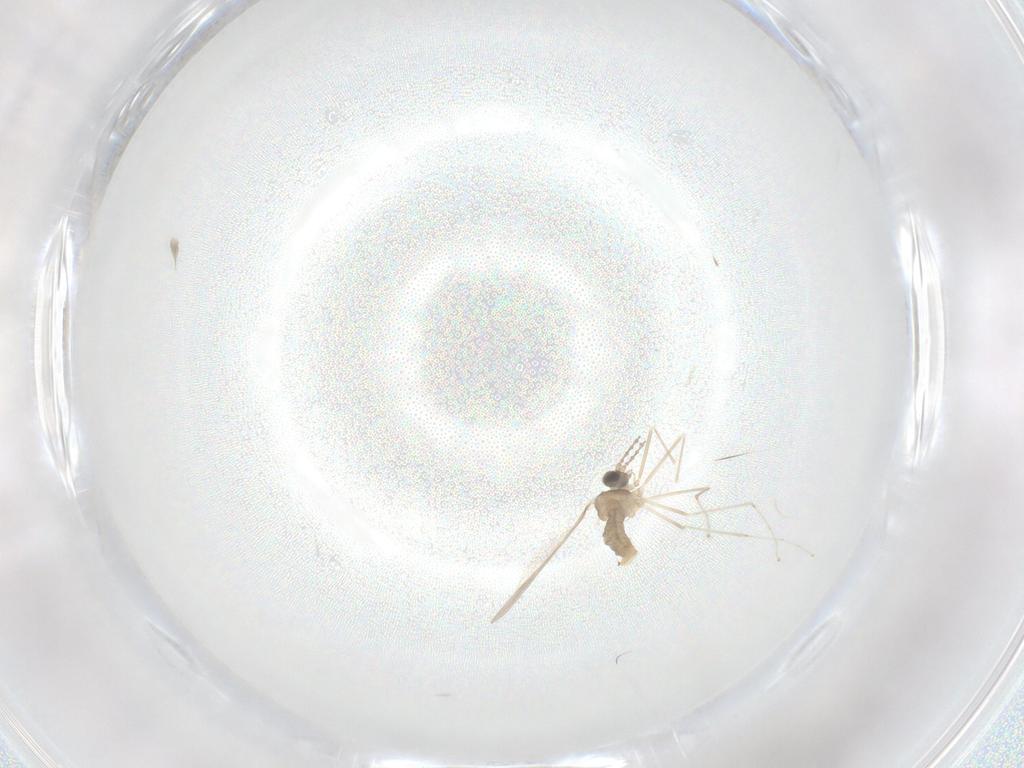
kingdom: Animalia
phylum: Arthropoda
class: Insecta
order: Diptera
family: Cecidomyiidae
